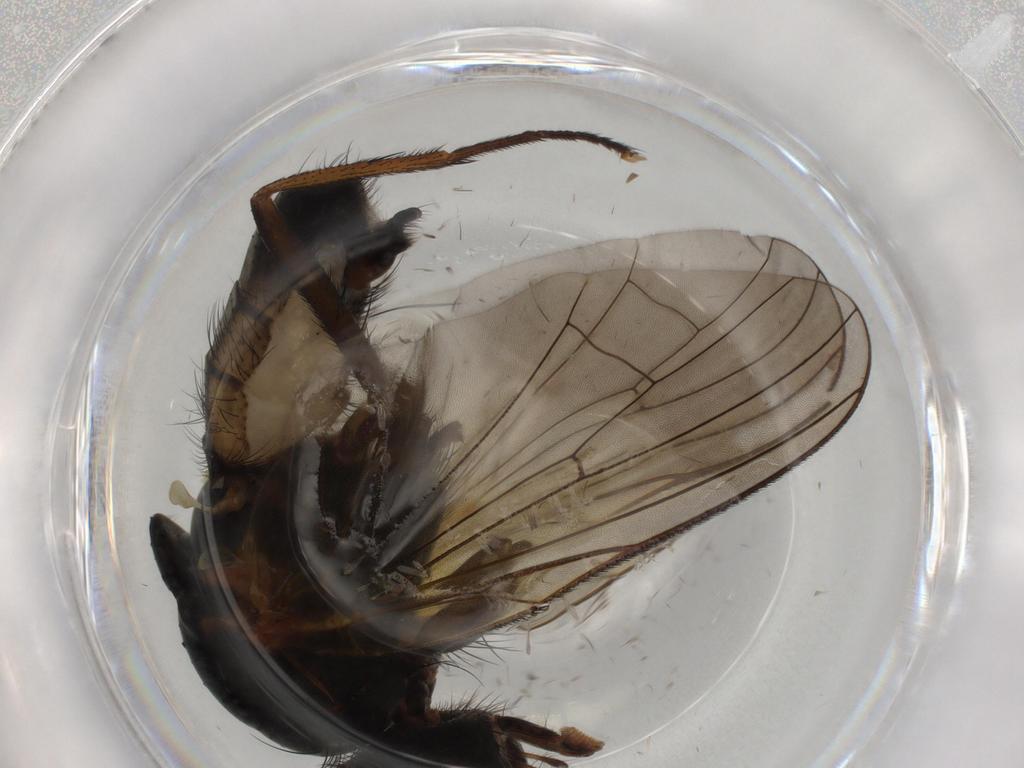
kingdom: Animalia
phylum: Arthropoda
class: Insecta
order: Diptera
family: Anthomyiidae
